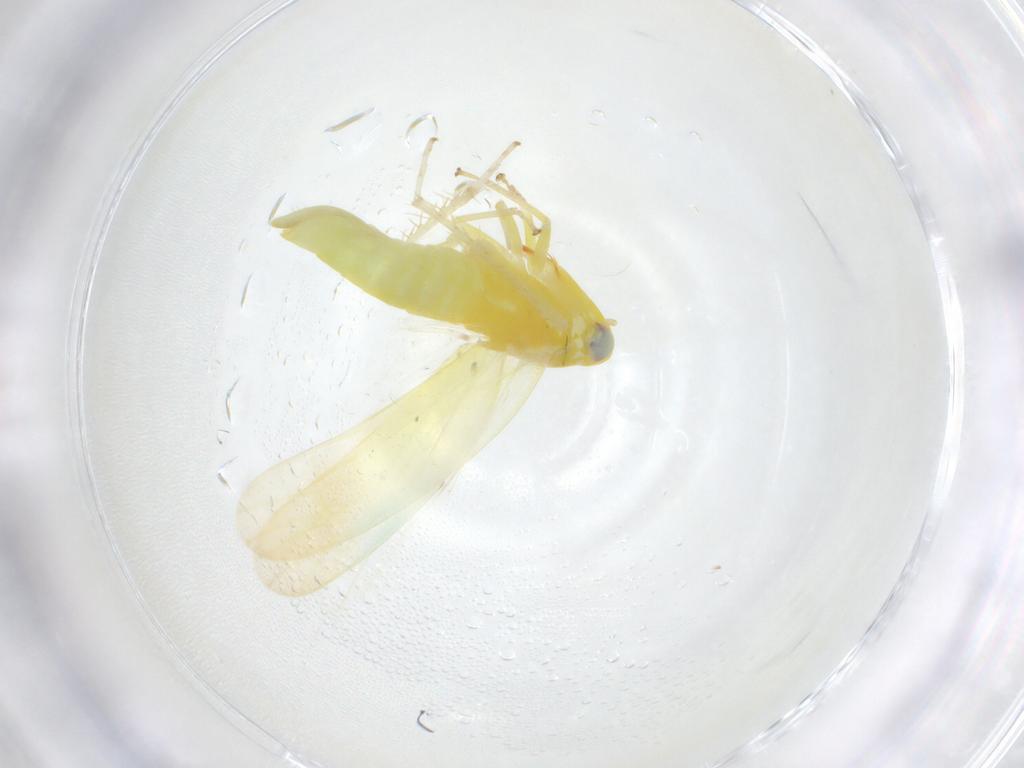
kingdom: Animalia
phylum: Arthropoda
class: Insecta
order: Hemiptera
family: Cicadellidae
